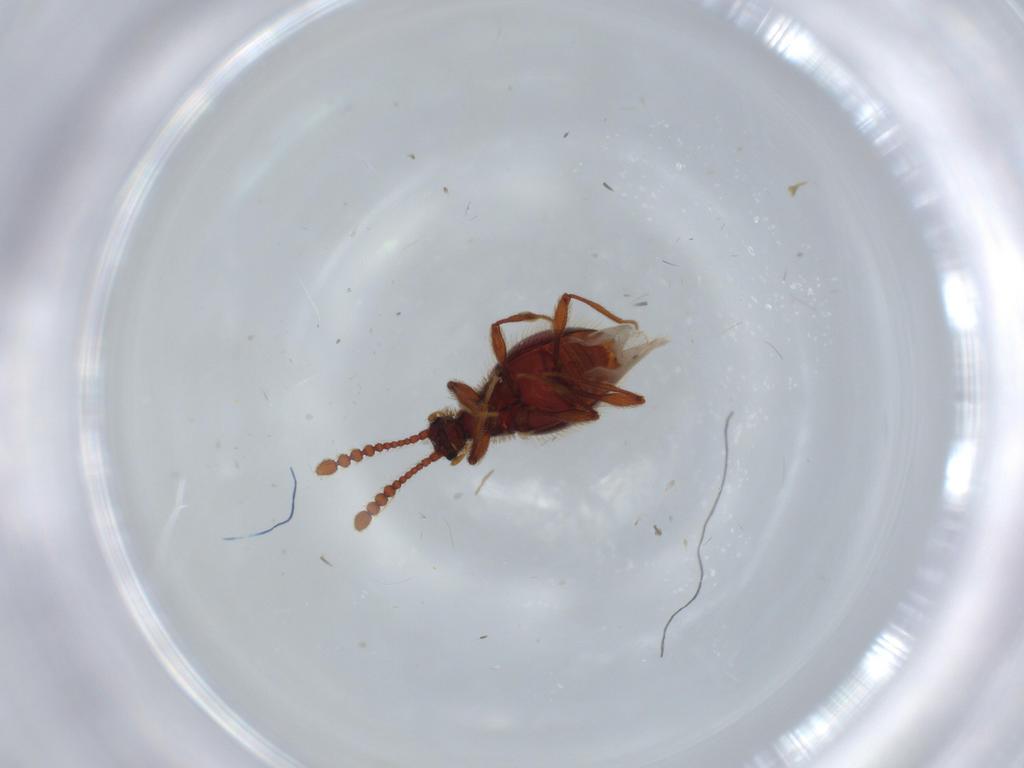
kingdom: Animalia
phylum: Arthropoda
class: Insecta
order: Coleoptera
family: Staphylinidae
